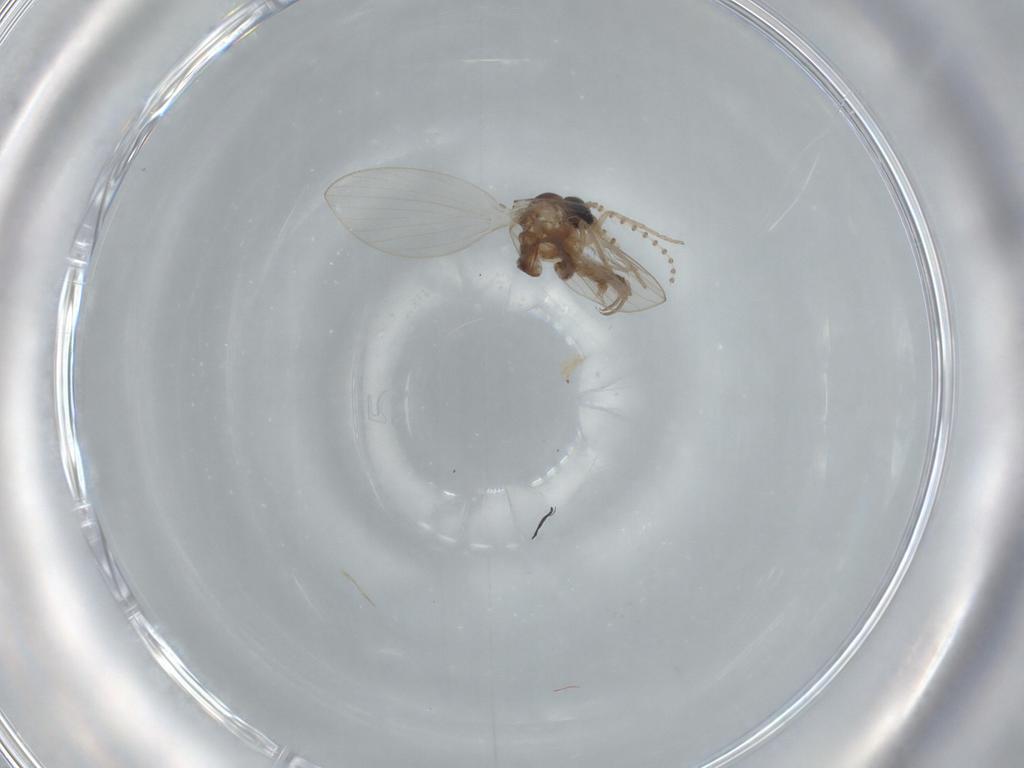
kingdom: Animalia
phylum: Arthropoda
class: Insecta
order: Diptera
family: Psychodidae
